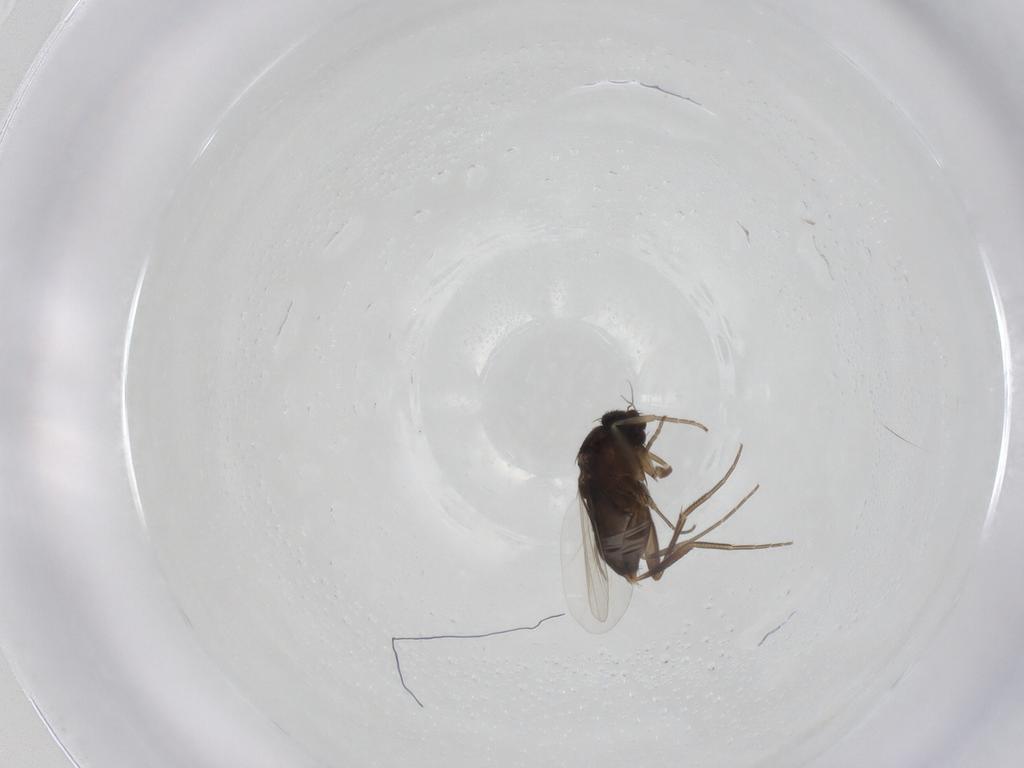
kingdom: Animalia
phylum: Arthropoda
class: Insecta
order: Diptera
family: Phoridae
